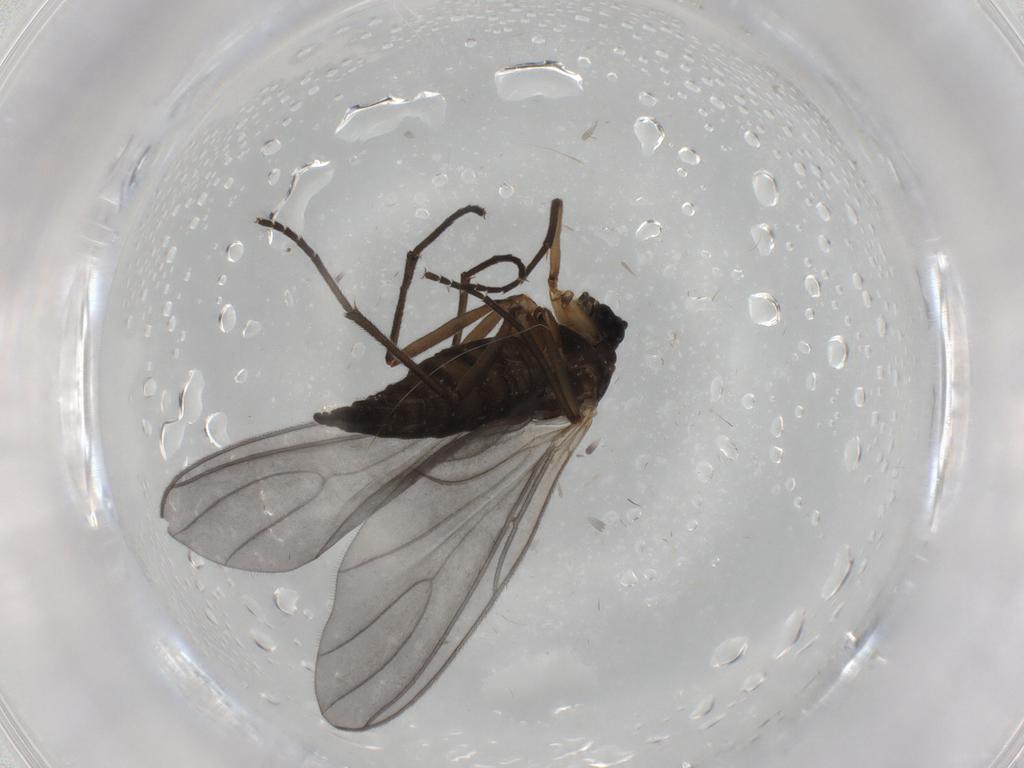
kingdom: Animalia
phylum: Arthropoda
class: Insecta
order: Diptera
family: Sciaridae
